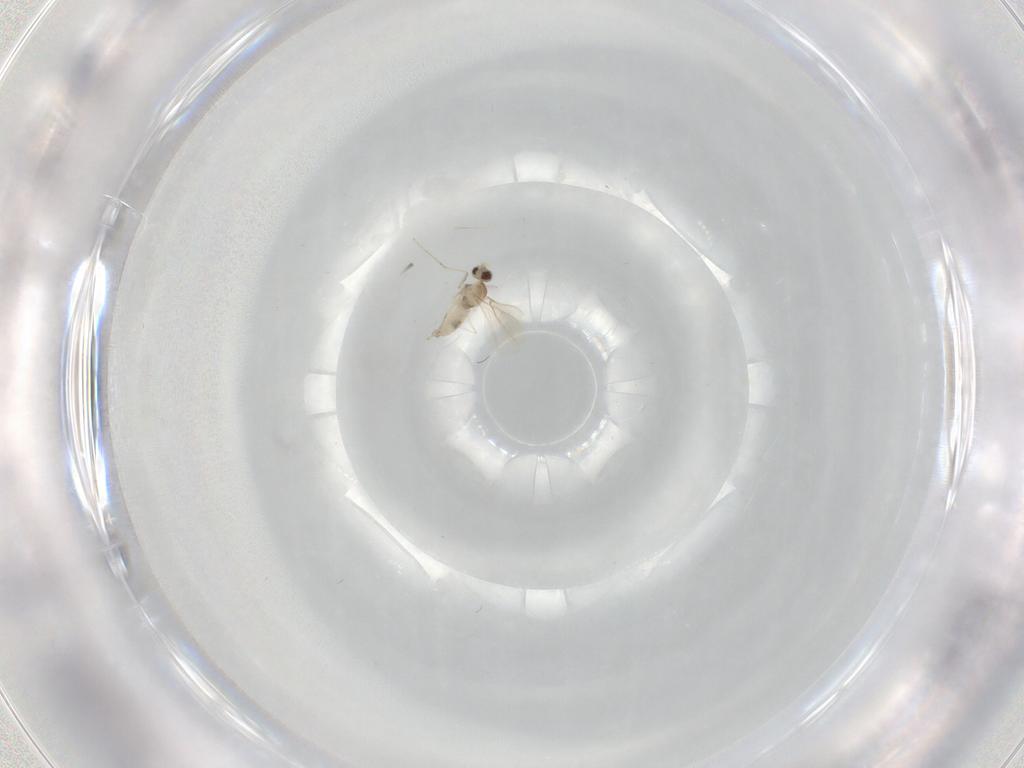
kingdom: Animalia
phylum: Arthropoda
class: Insecta
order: Diptera
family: Cecidomyiidae
